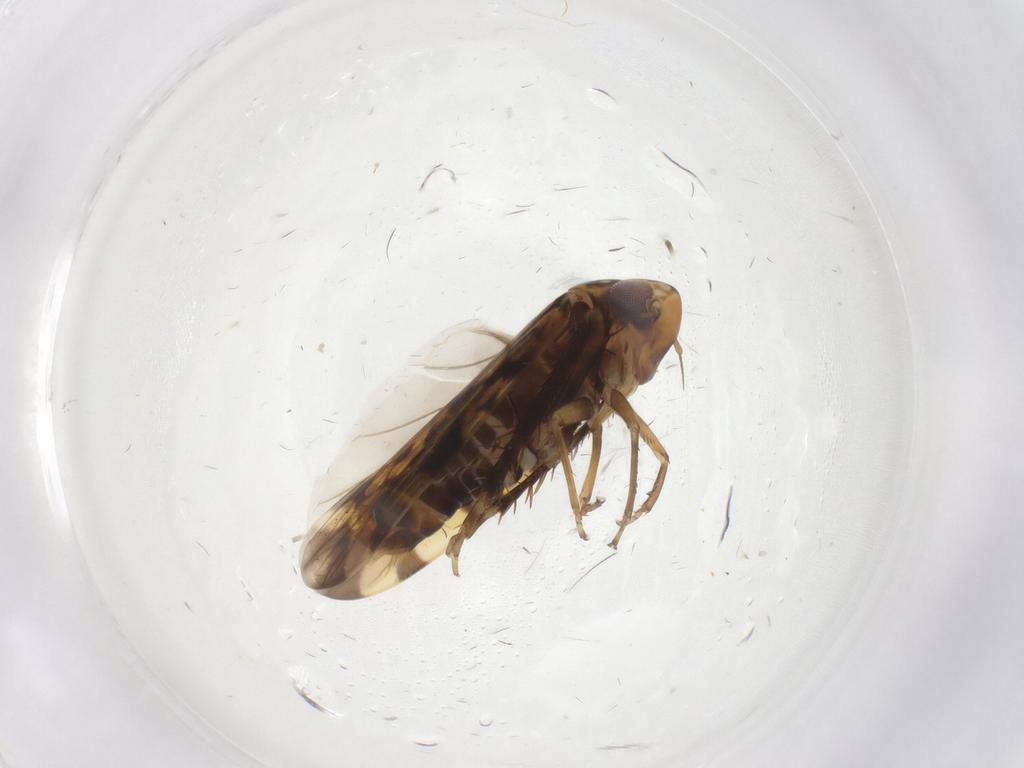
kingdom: Animalia
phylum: Arthropoda
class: Insecta
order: Hemiptera
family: Cicadellidae
